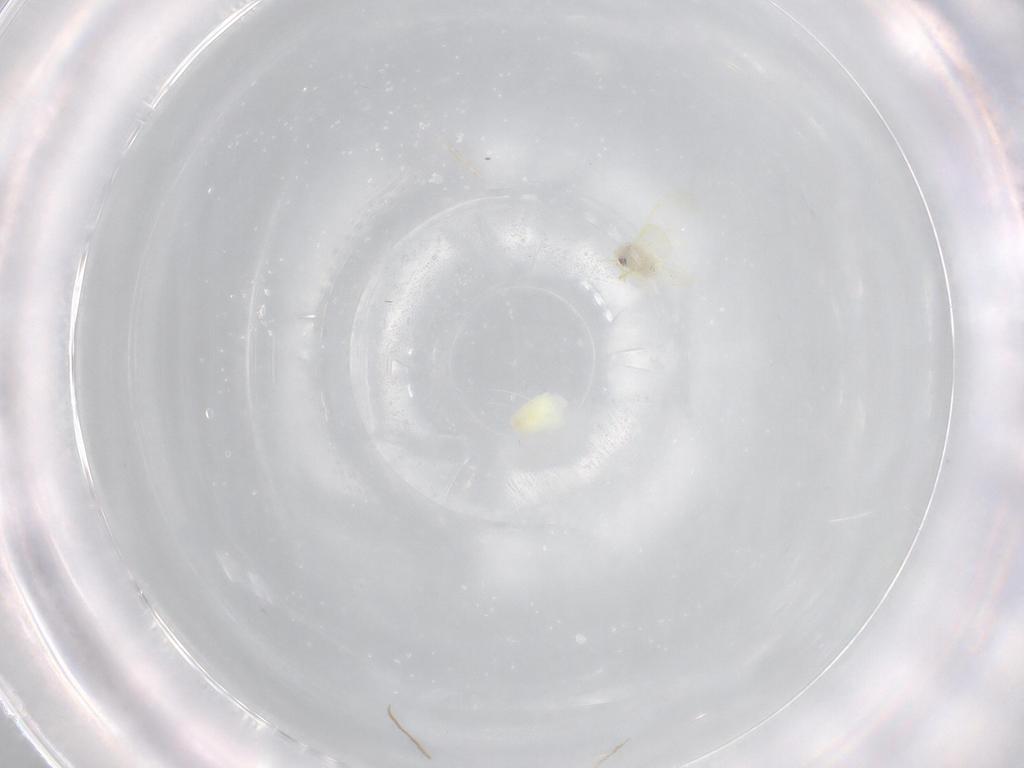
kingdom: Animalia
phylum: Arthropoda
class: Insecta
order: Hemiptera
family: Aleyrodidae
